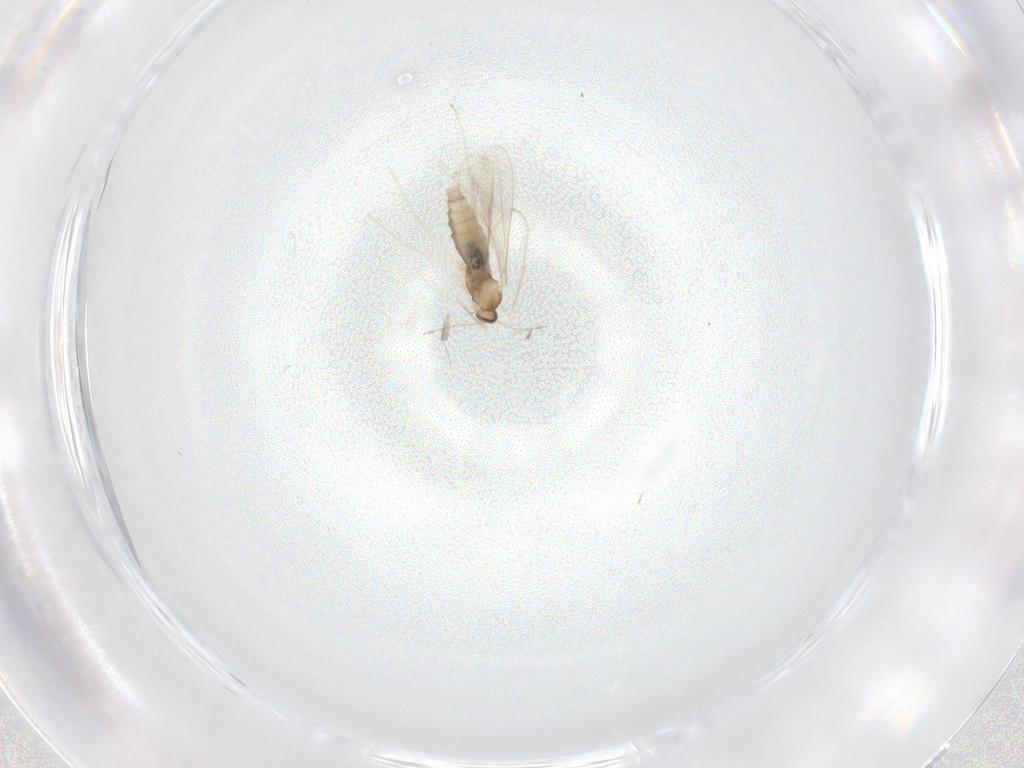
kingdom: Animalia
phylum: Arthropoda
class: Insecta
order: Diptera
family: Cecidomyiidae
